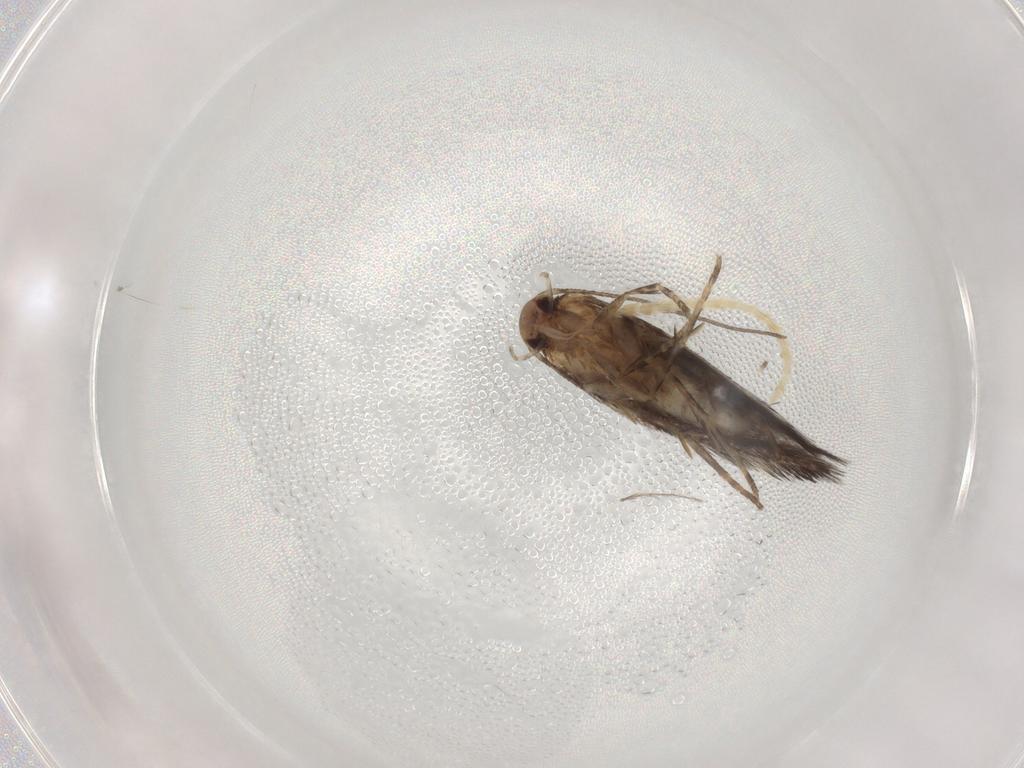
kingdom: Animalia
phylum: Arthropoda
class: Insecta
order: Lepidoptera
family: Elachistidae
